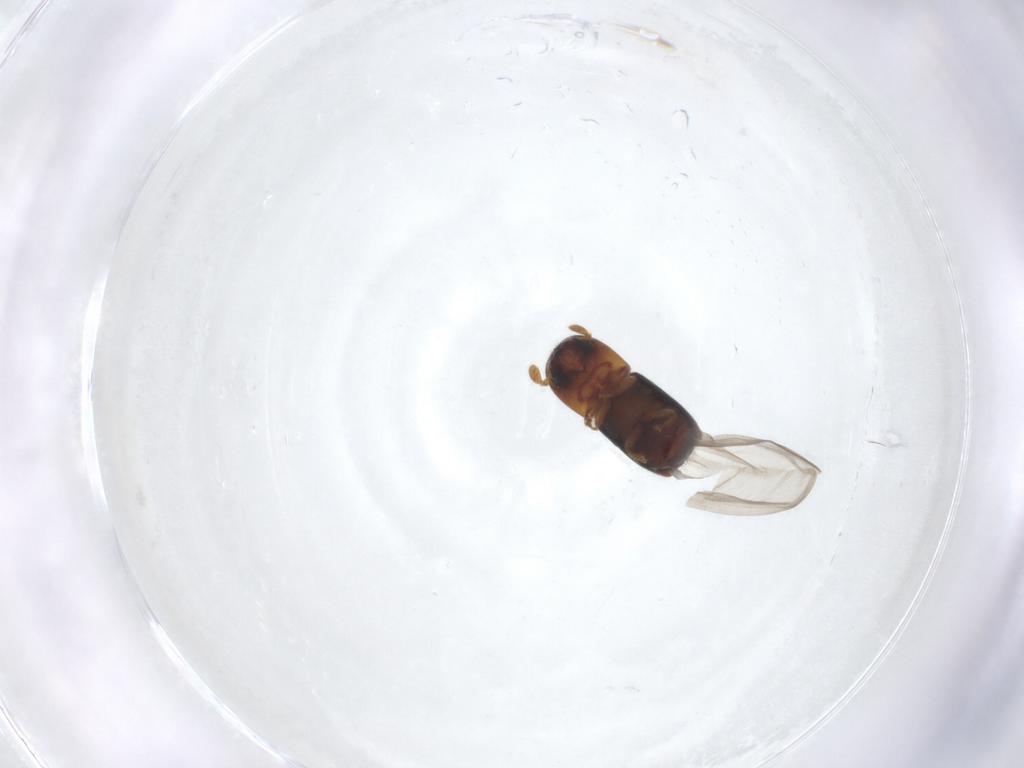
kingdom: Animalia
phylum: Arthropoda
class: Insecta
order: Coleoptera
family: Curculionidae
